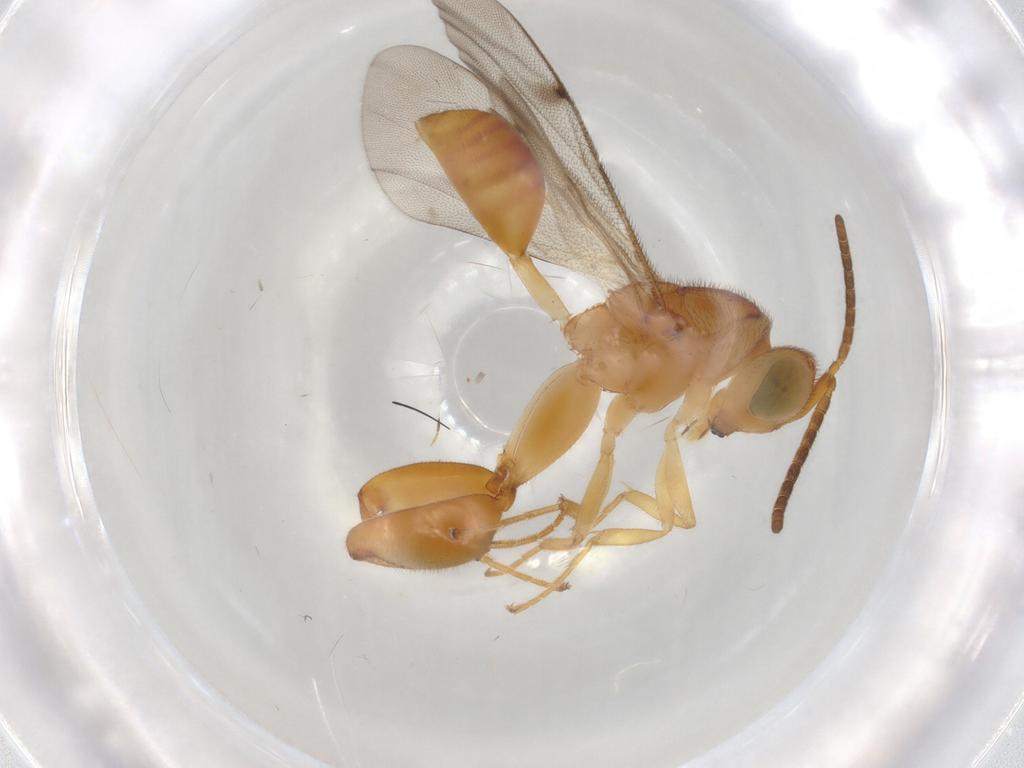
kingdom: Animalia
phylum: Arthropoda
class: Insecta
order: Hymenoptera
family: Chalcididae
